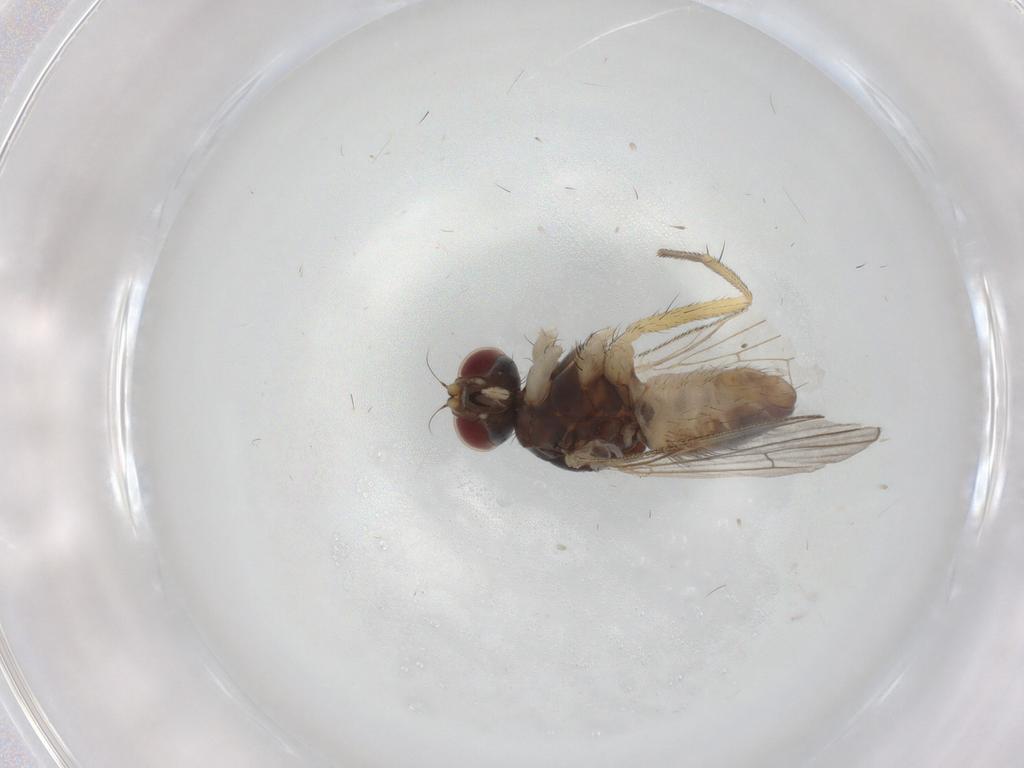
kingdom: Animalia
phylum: Arthropoda
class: Insecta
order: Diptera
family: Muscidae
